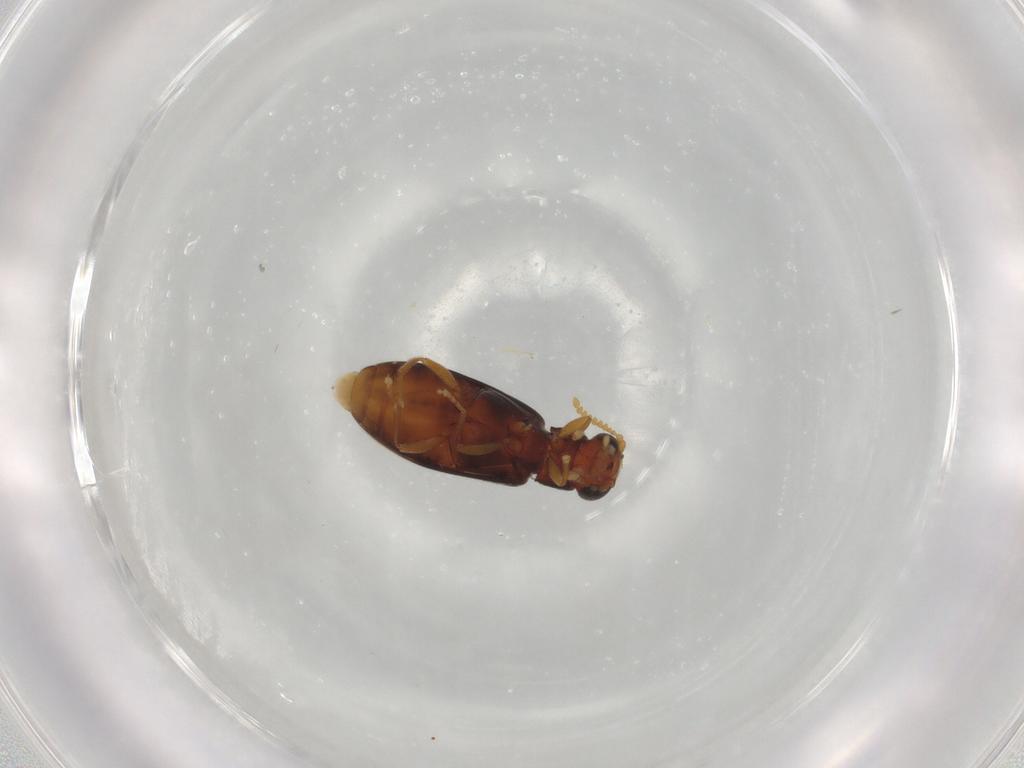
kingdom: Animalia
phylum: Arthropoda
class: Insecta
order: Coleoptera
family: Mycteridae
